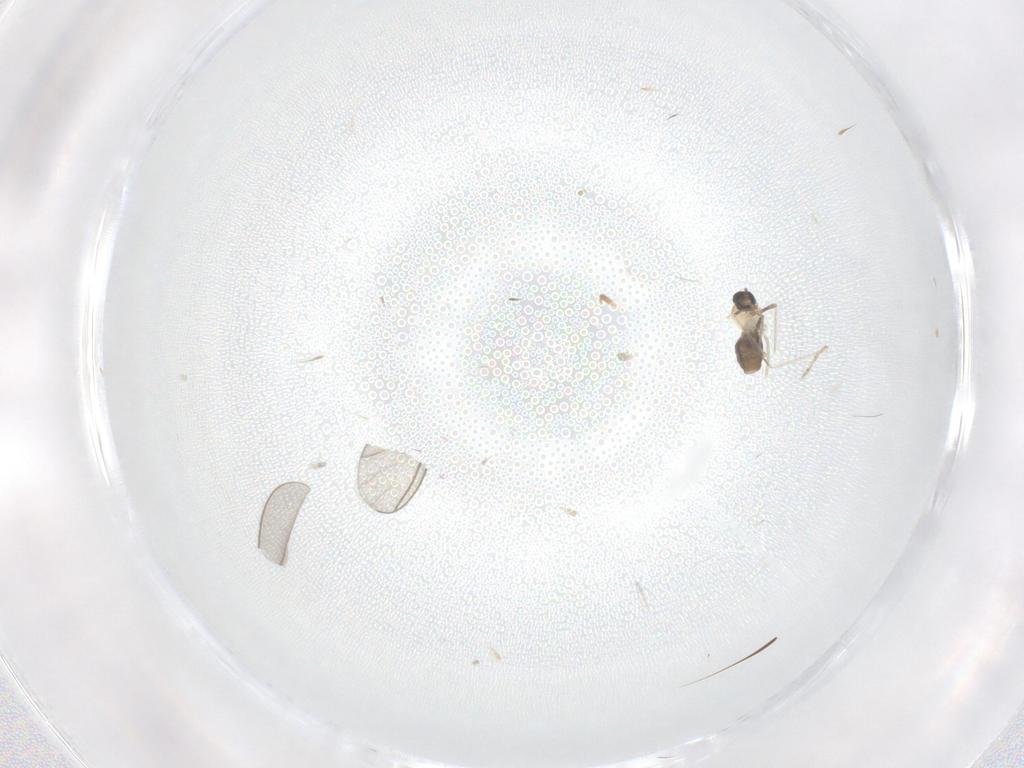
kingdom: Animalia
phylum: Arthropoda
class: Insecta
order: Diptera
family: Cecidomyiidae
